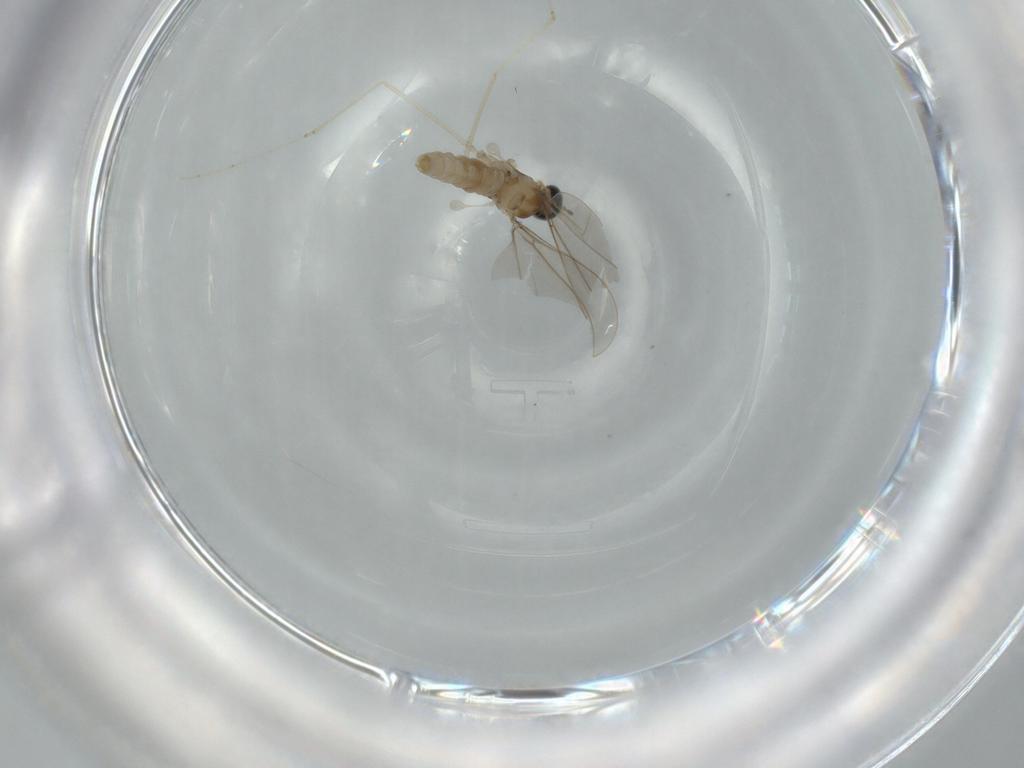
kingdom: Animalia
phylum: Arthropoda
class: Insecta
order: Diptera
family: Cecidomyiidae
